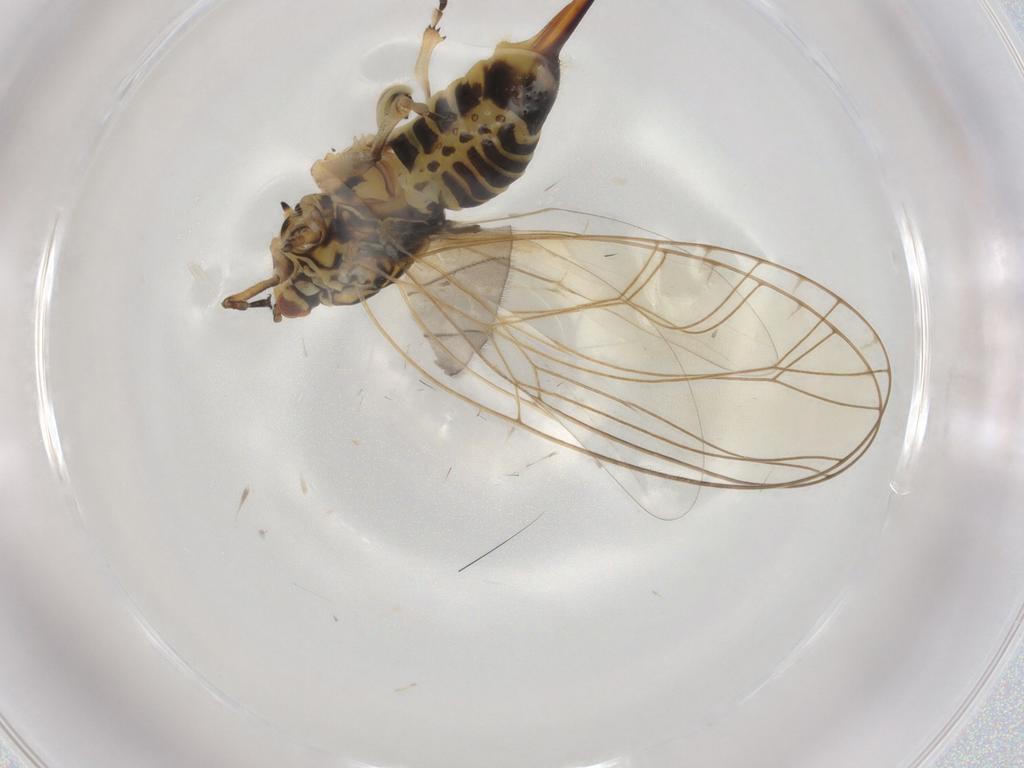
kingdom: Animalia
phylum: Arthropoda
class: Insecta
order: Hemiptera
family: Triozidae
